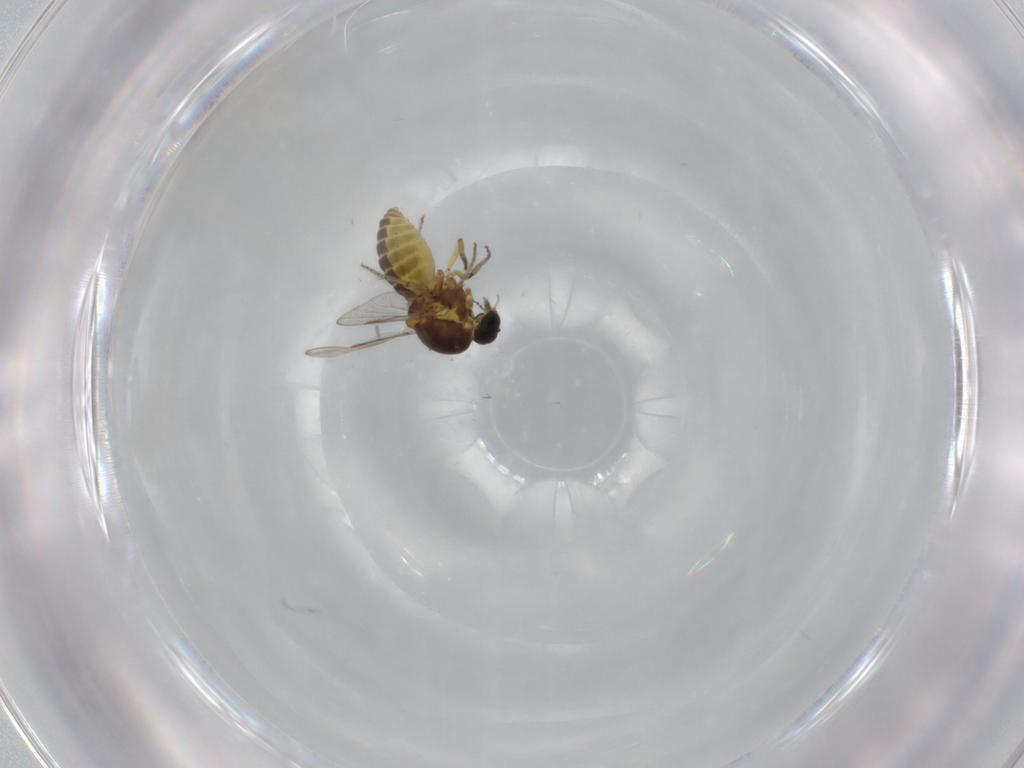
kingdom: Animalia
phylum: Arthropoda
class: Insecta
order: Diptera
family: Ceratopogonidae
